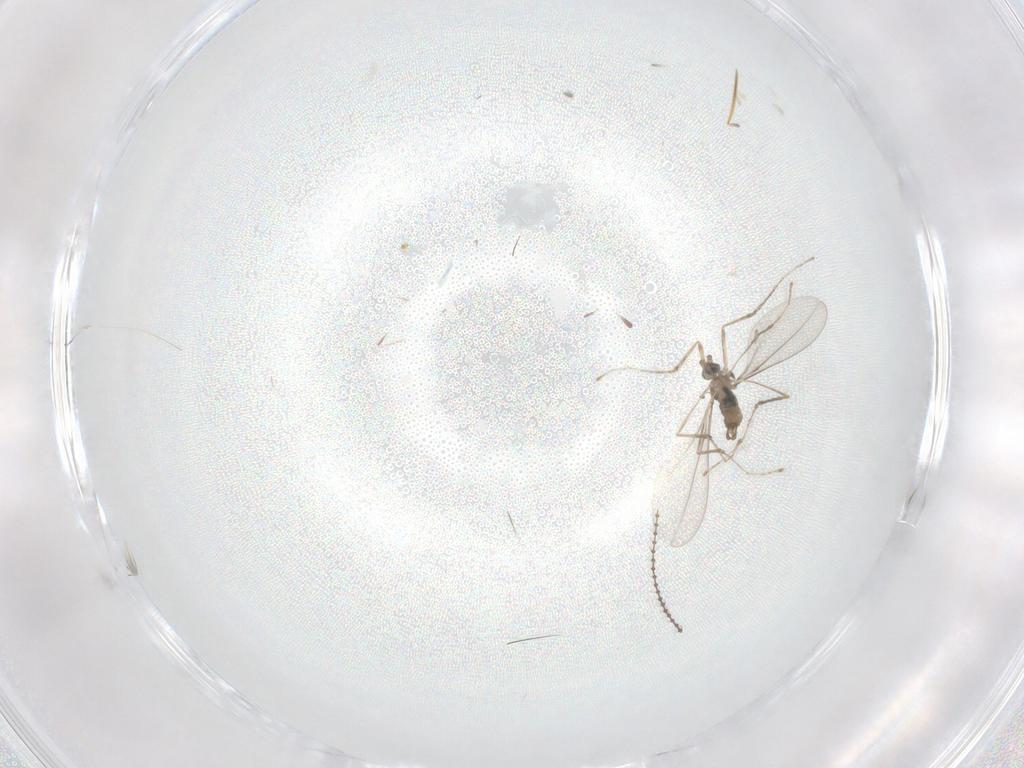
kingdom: Animalia
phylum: Arthropoda
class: Insecta
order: Diptera
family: Cecidomyiidae
